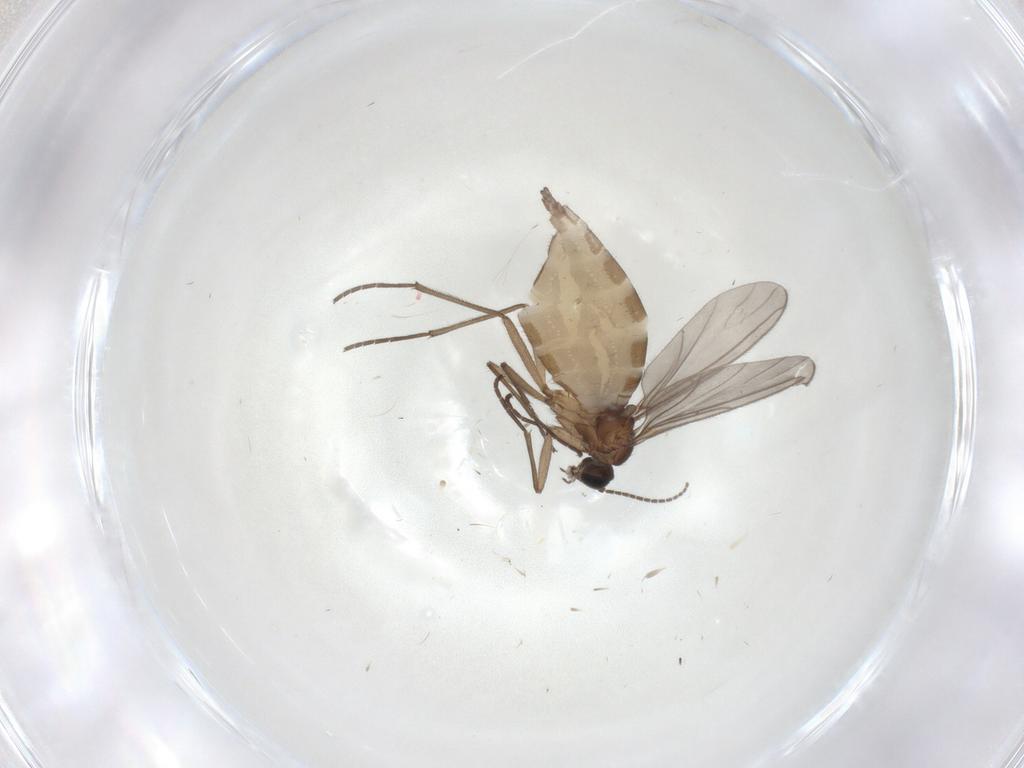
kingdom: Animalia
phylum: Arthropoda
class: Insecta
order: Diptera
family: Sciaridae
